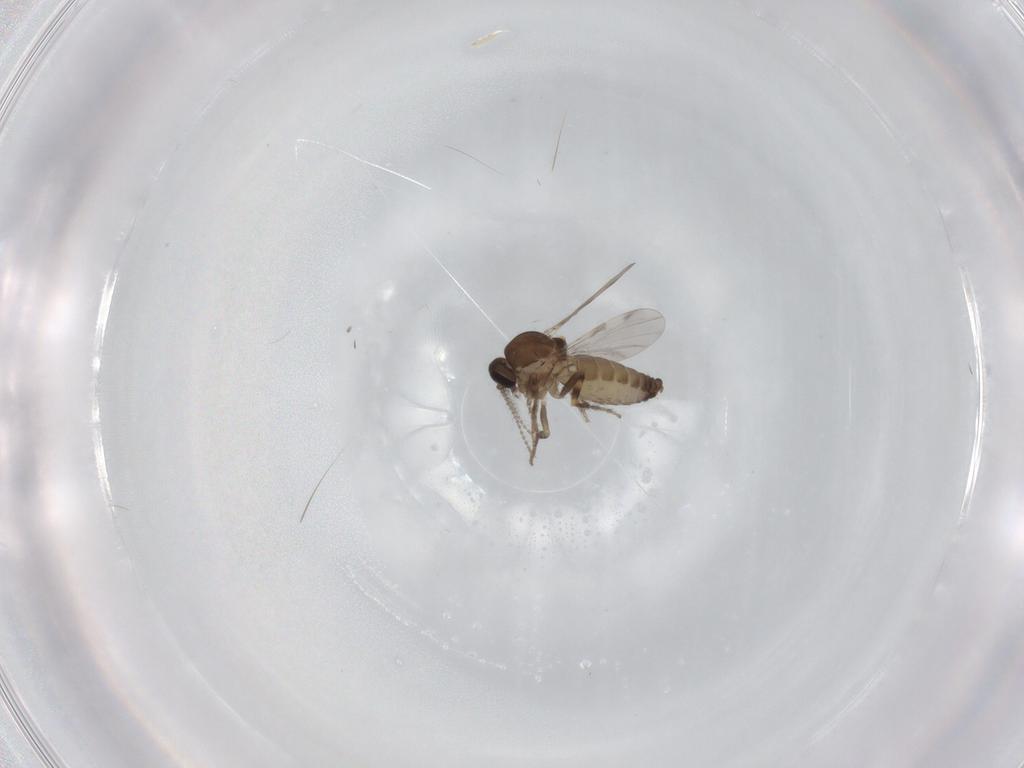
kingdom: Animalia
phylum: Arthropoda
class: Insecta
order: Diptera
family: Ceratopogonidae
